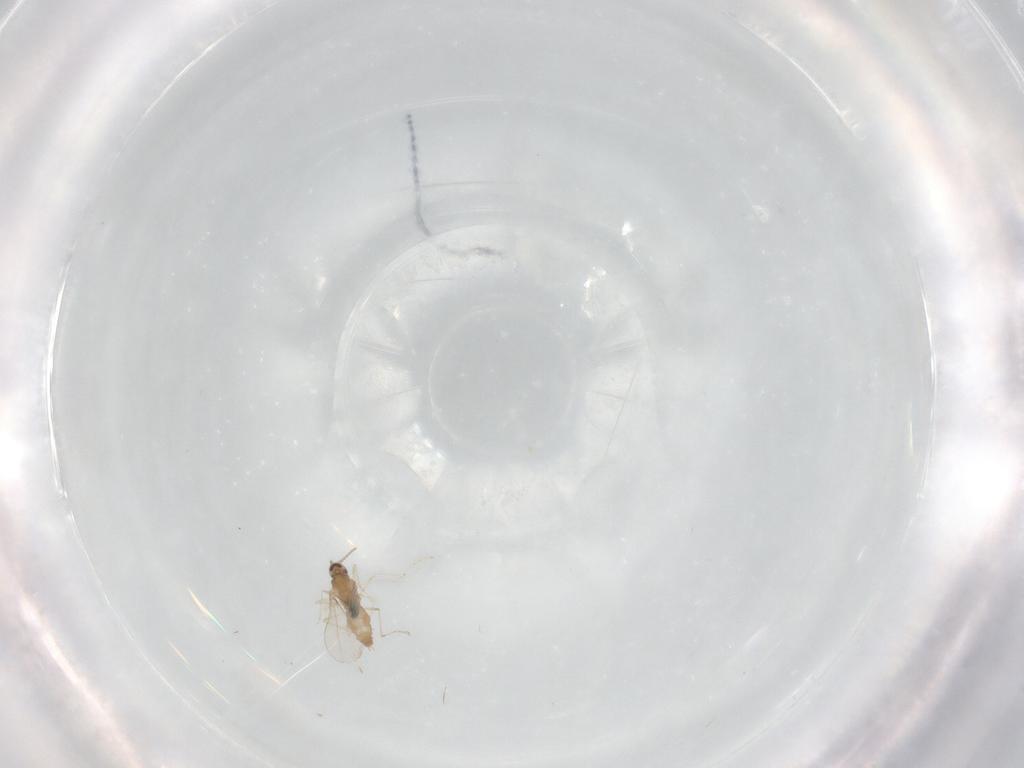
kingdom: Animalia
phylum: Arthropoda
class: Insecta
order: Diptera
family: Cecidomyiidae
